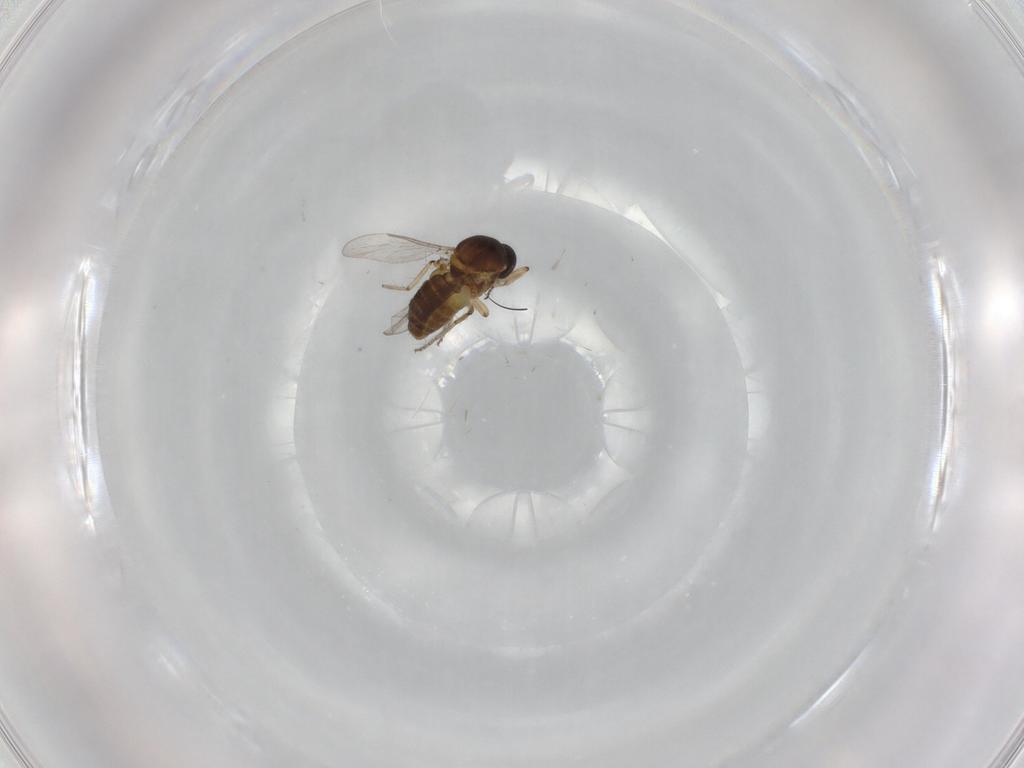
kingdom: Animalia
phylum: Arthropoda
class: Insecta
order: Diptera
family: Ceratopogonidae
